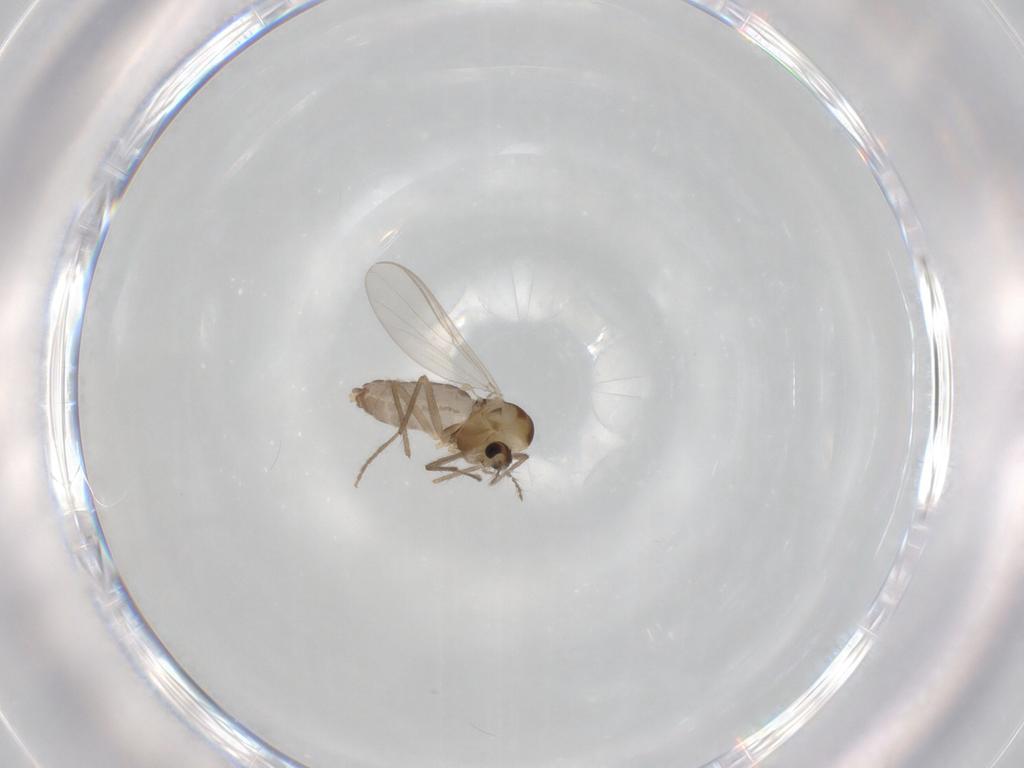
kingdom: Animalia
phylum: Arthropoda
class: Insecta
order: Diptera
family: Chironomidae
